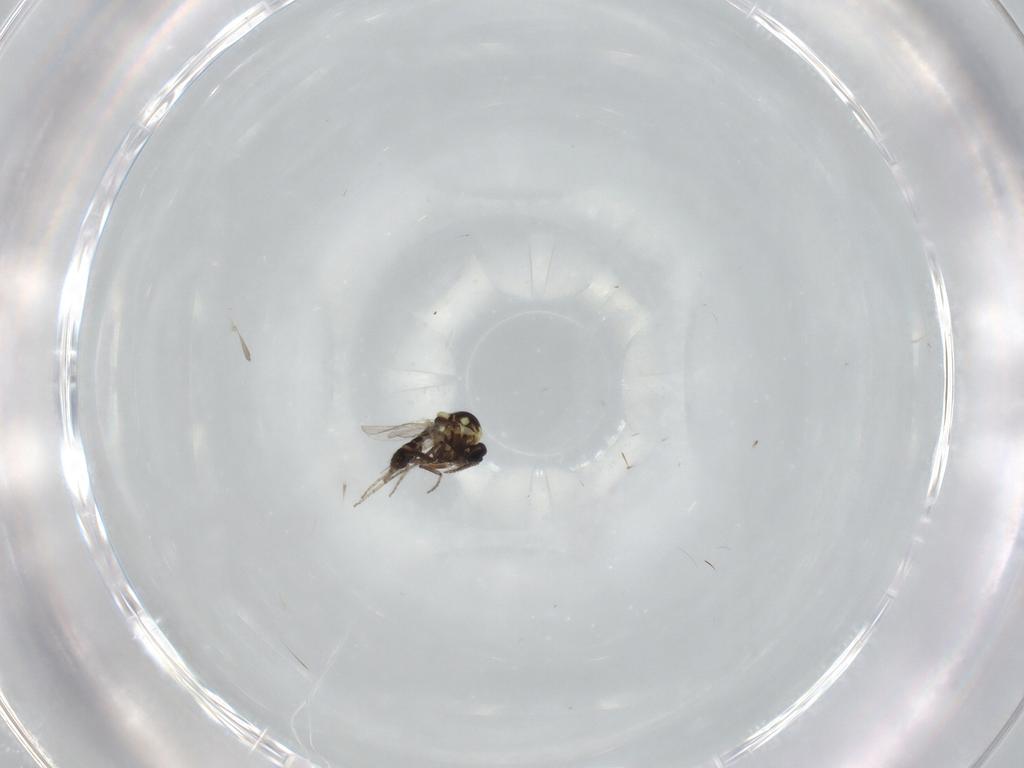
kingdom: Animalia
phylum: Arthropoda
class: Insecta
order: Diptera
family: Ceratopogonidae
